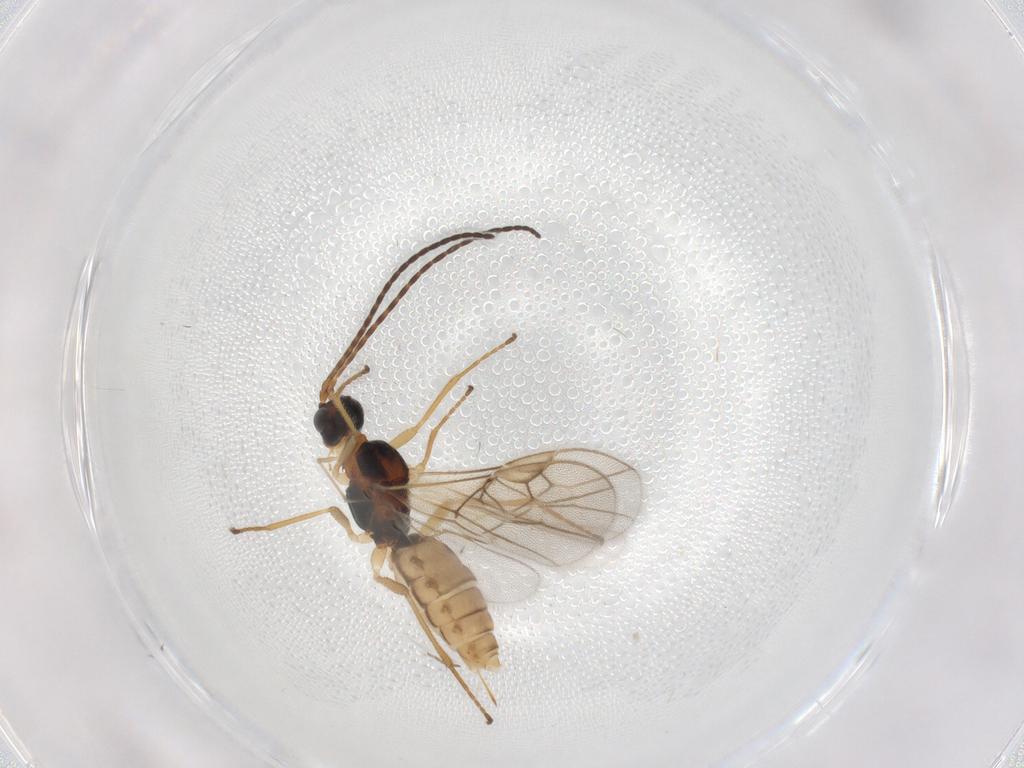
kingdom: Animalia
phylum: Arthropoda
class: Insecta
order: Hymenoptera
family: Braconidae
